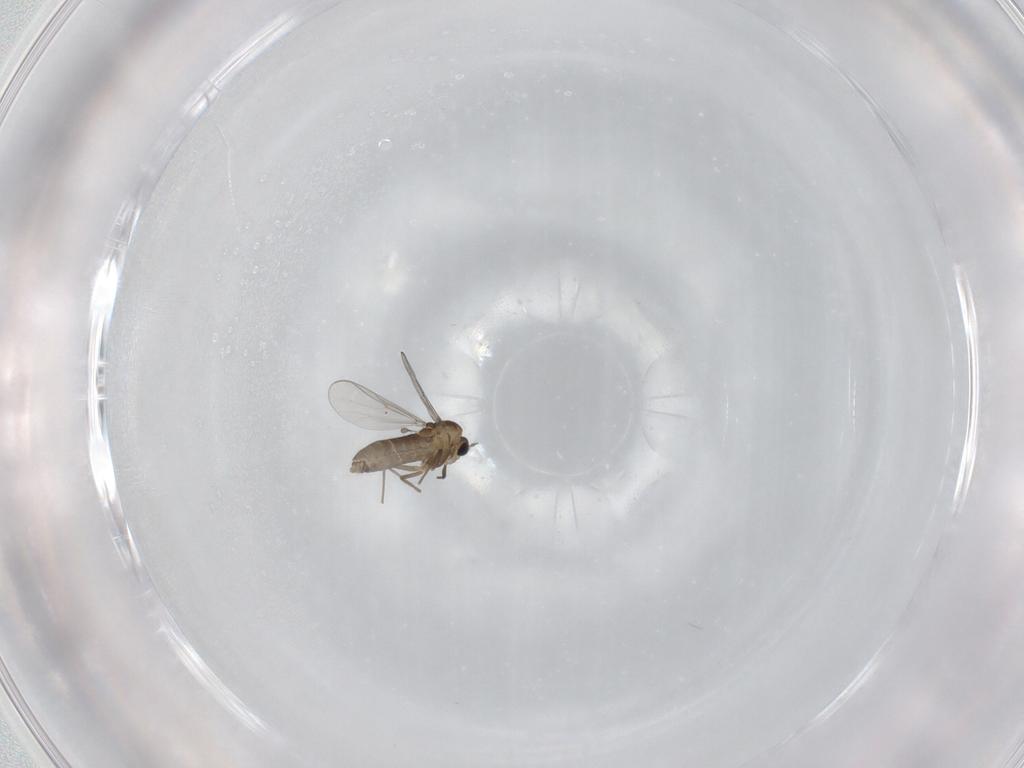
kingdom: Animalia
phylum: Arthropoda
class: Insecta
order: Diptera
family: Chironomidae
